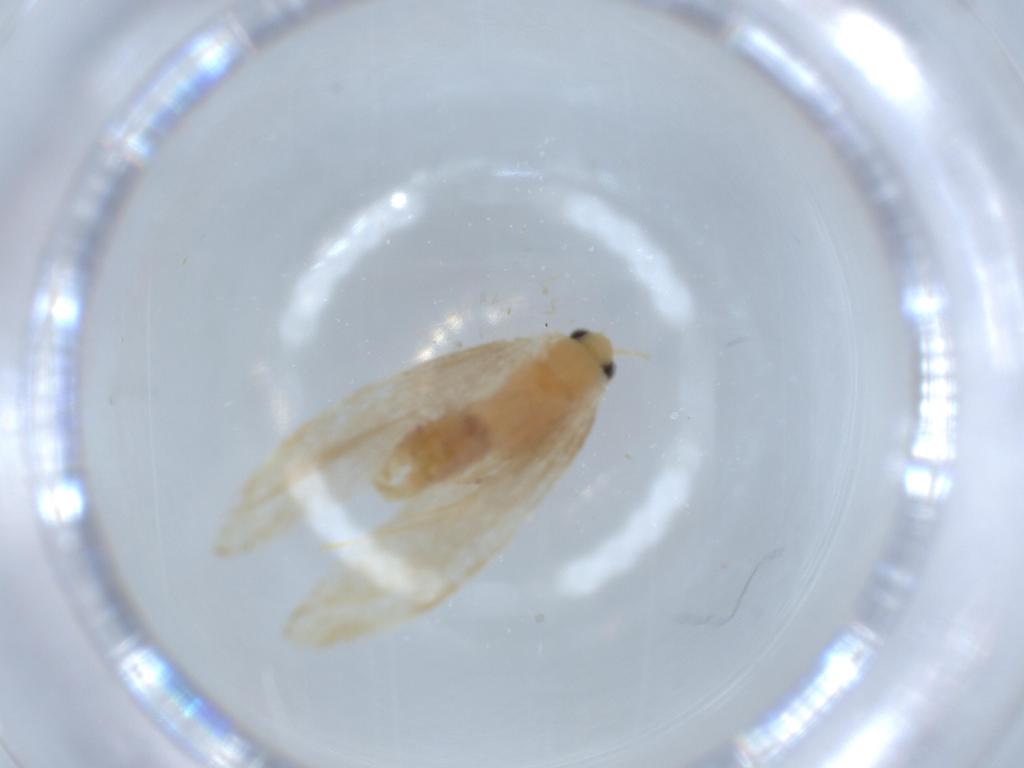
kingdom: Animalia
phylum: Arthropoda
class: Insecta
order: Lepidoptera
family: Dryadaulidae
